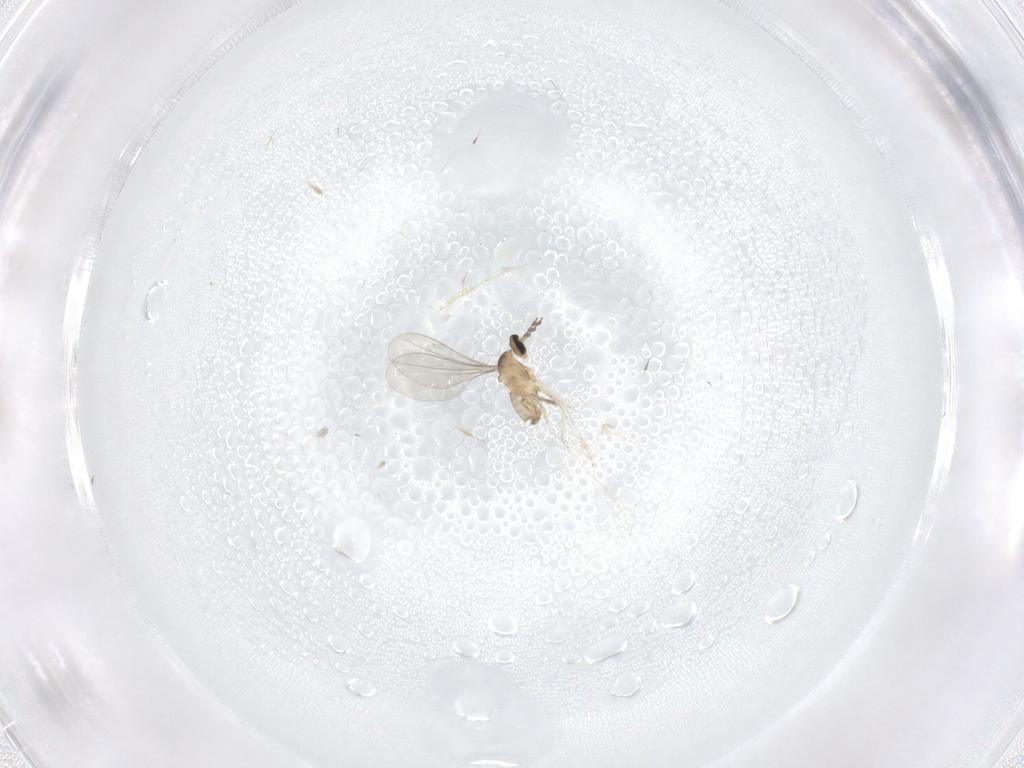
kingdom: Animalia
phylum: Arthropoda
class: Insecta
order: Diptera
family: Cecidomyiidae
